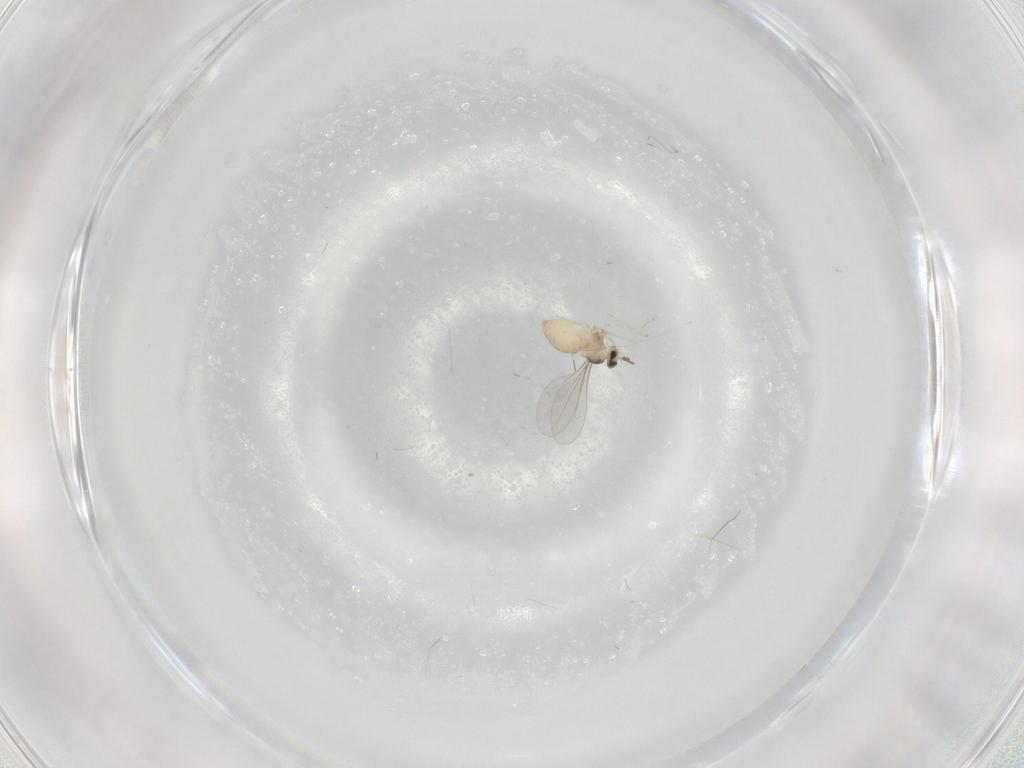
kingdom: Animalia
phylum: Arthropoda
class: Insecta
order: Diptera
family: Cecidomyiidae
